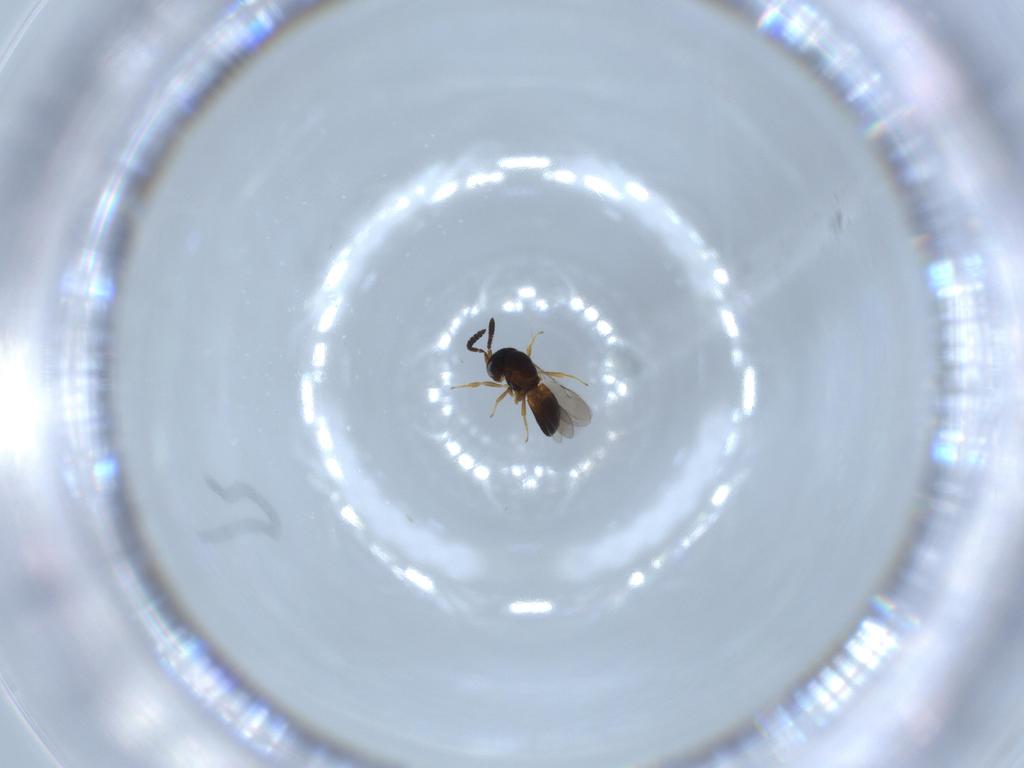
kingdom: Animalia
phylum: Arthropoda
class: Insecta
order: Hymenoptera
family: Scelionidae
